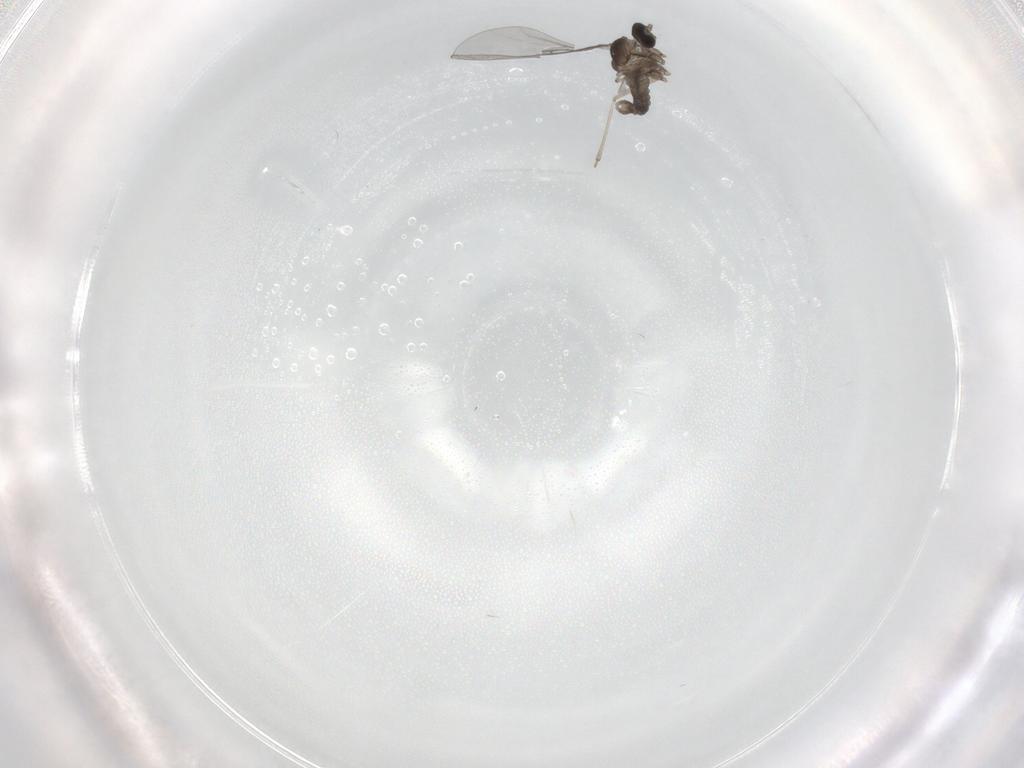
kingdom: Animalia
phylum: Arthropoda
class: Insecta
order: Diptera
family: Cecidomyiidae
